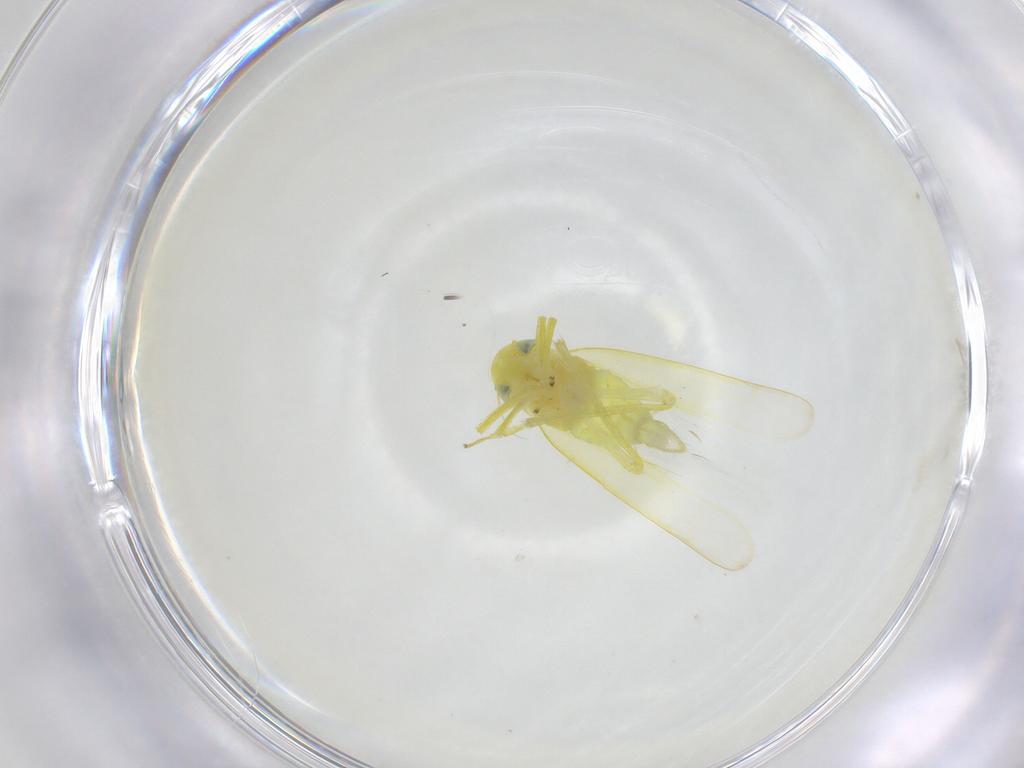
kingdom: Animalia
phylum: Arthropoda
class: Insecta
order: Hemiptera
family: Cicadellidae
